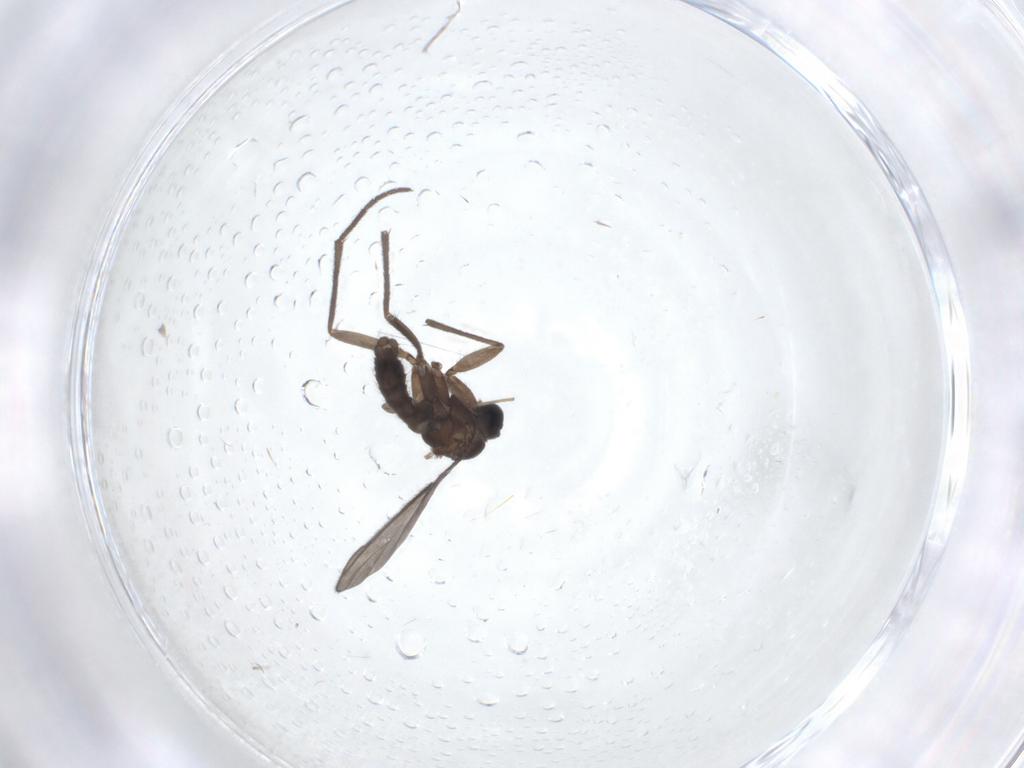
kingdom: Animalia
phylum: Arthropoda
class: Insecta
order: Diptera
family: Sciaridae
